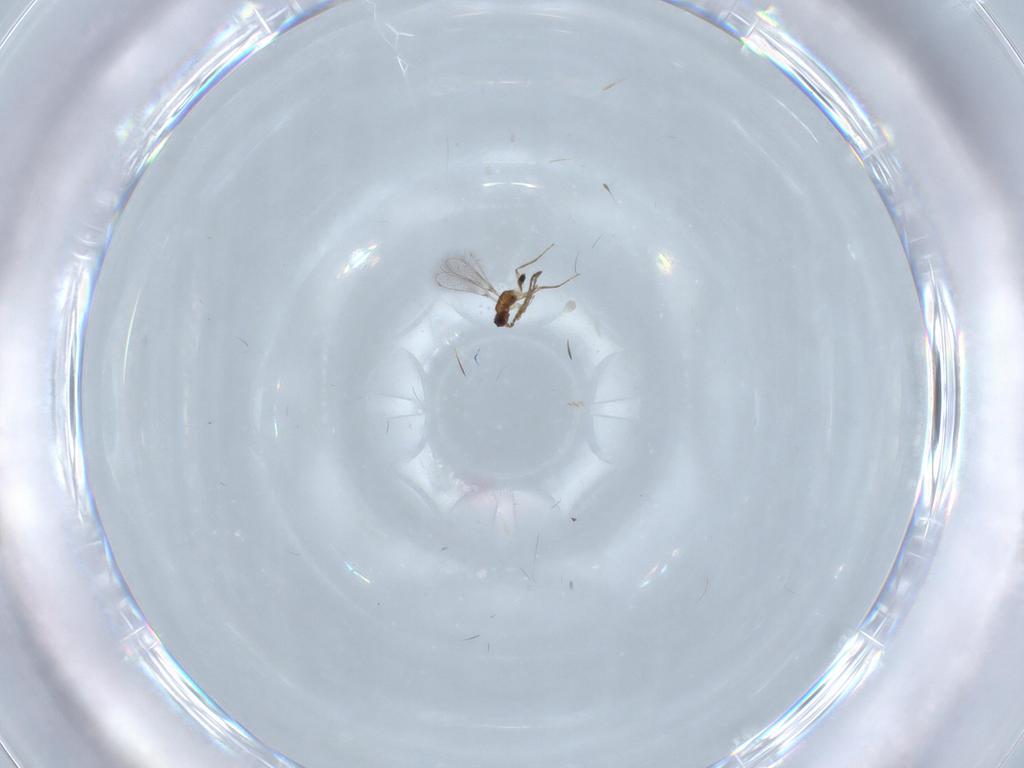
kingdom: Animalia
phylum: Arthropoda
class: Insecta
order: Hymenoptera
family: Mymaridae
